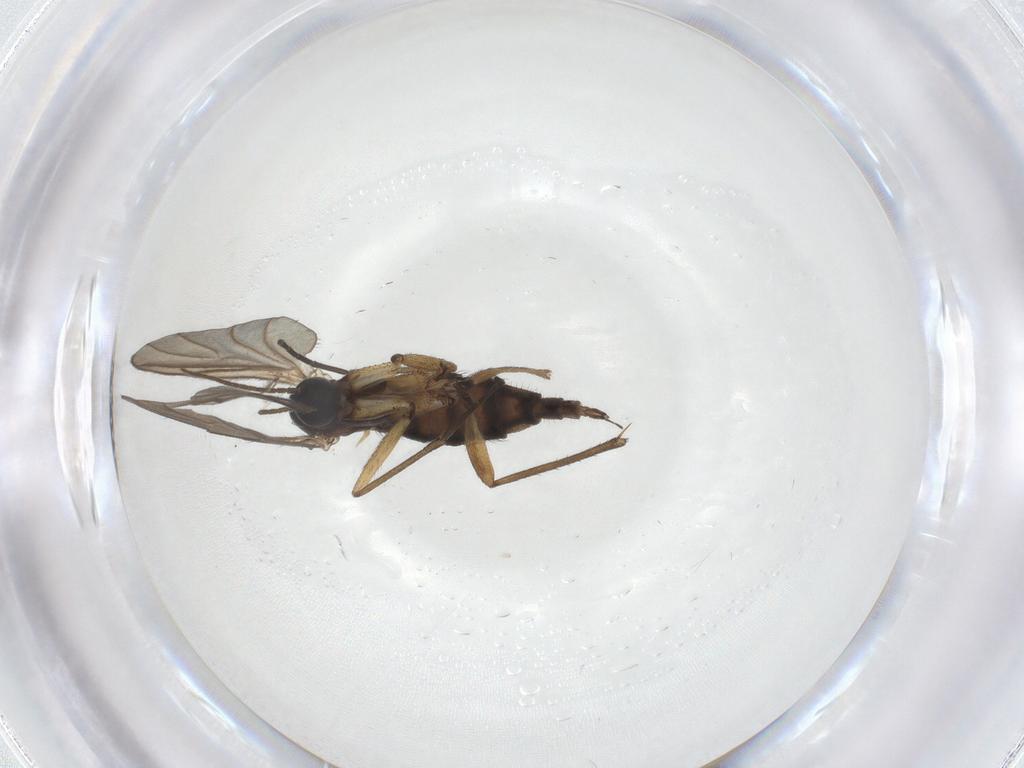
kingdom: Animalia
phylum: Arthropoda
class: Insecta
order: Diptera
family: Sciaridae
